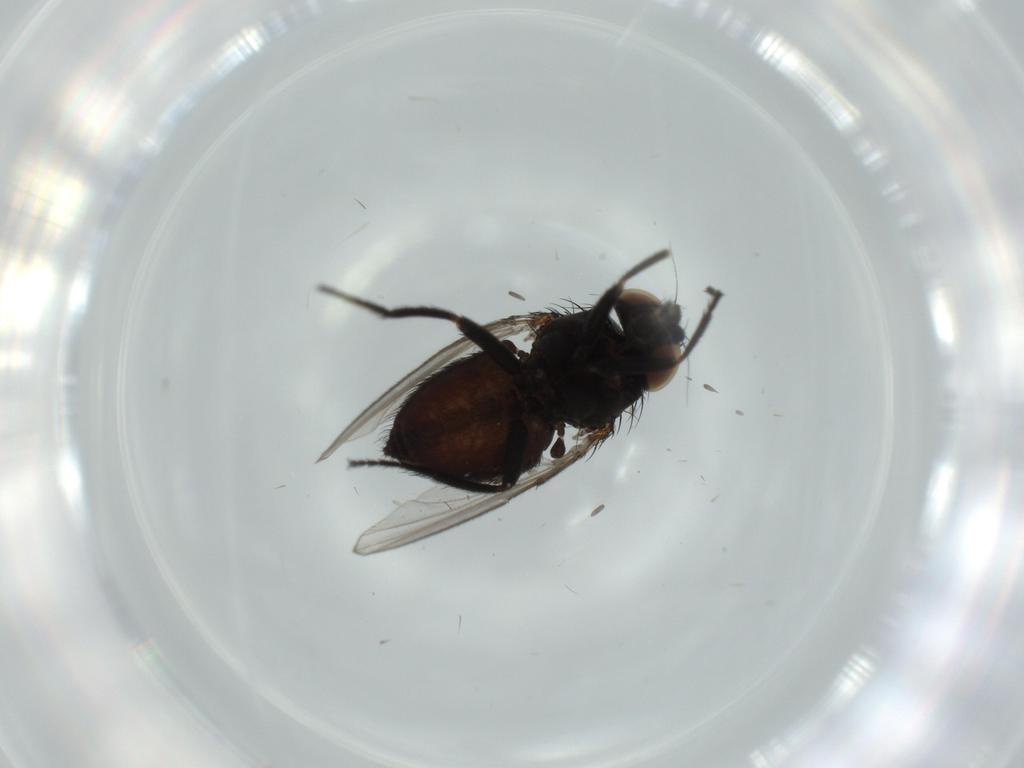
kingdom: Animalia
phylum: Arthropoda
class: Insecta
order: Diptera
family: Milichiidae
